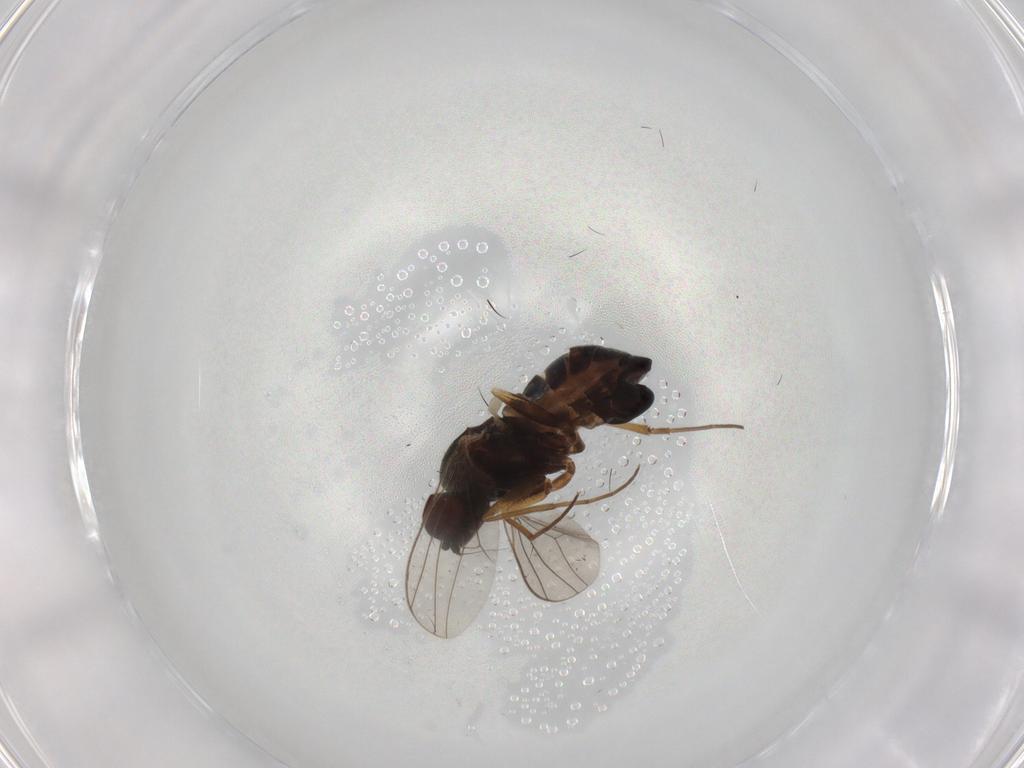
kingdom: Animalia
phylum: Arthropoda
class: Insecta
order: Diptera
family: Dolichopodidae
